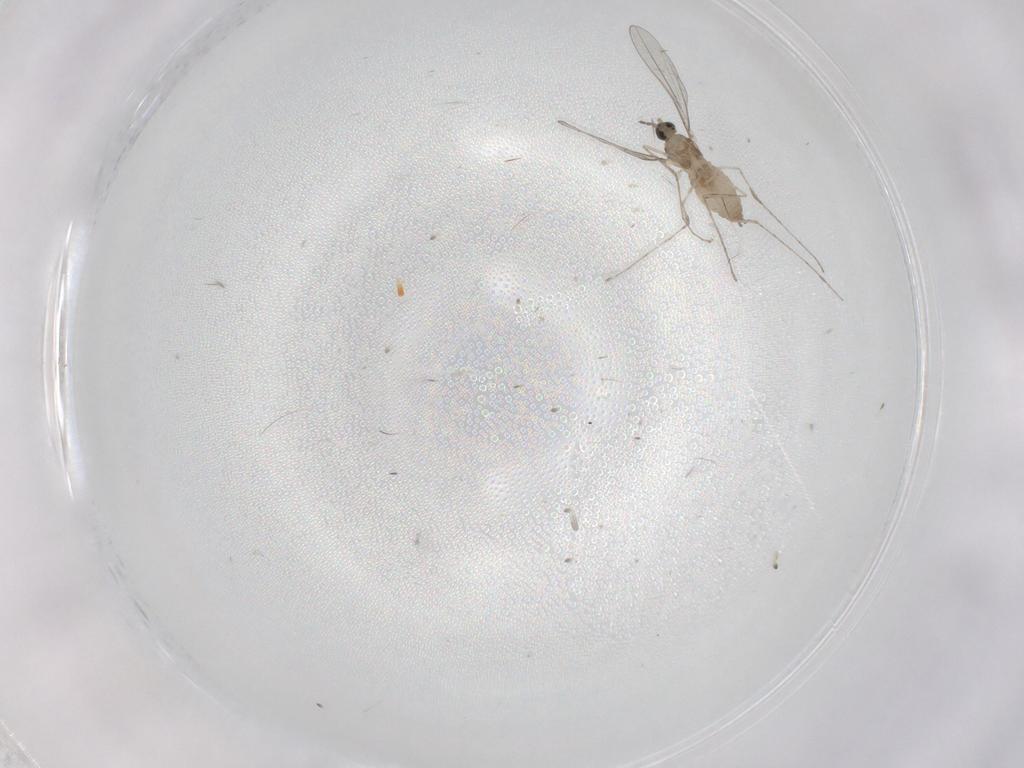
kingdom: Animalia
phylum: Arthropoda
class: Insecta
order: Diptera
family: Cecidomyiidae
